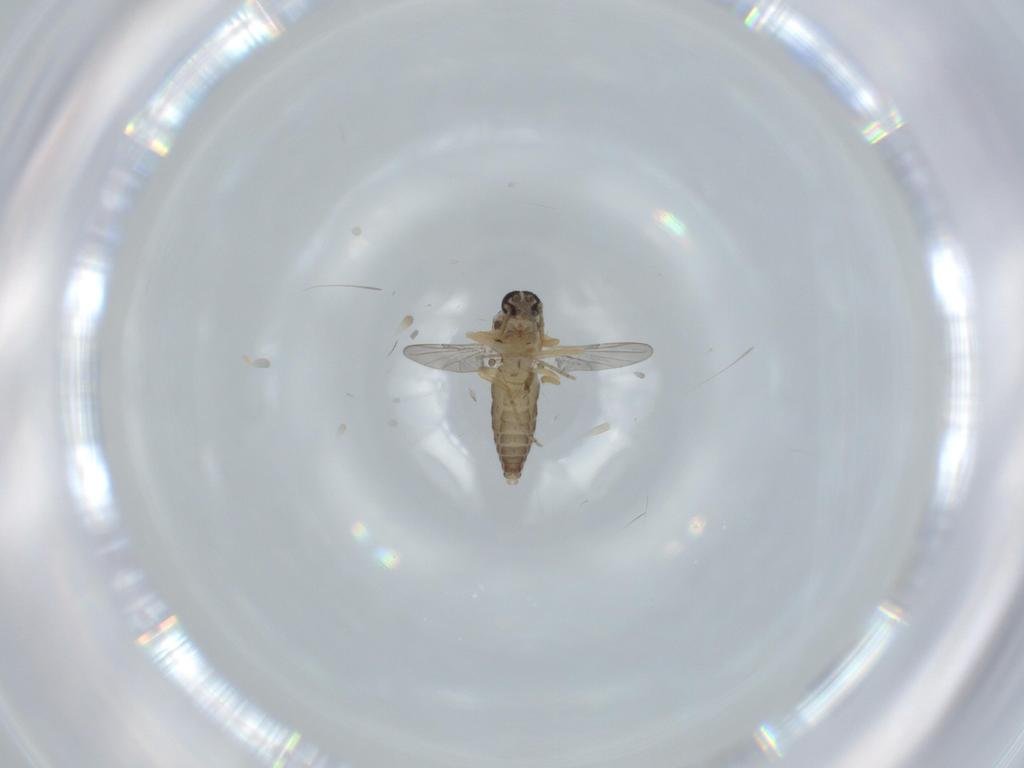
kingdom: Animalia
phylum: Arthropoda
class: Insecta
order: Diptera
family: Ceratopogonidae
